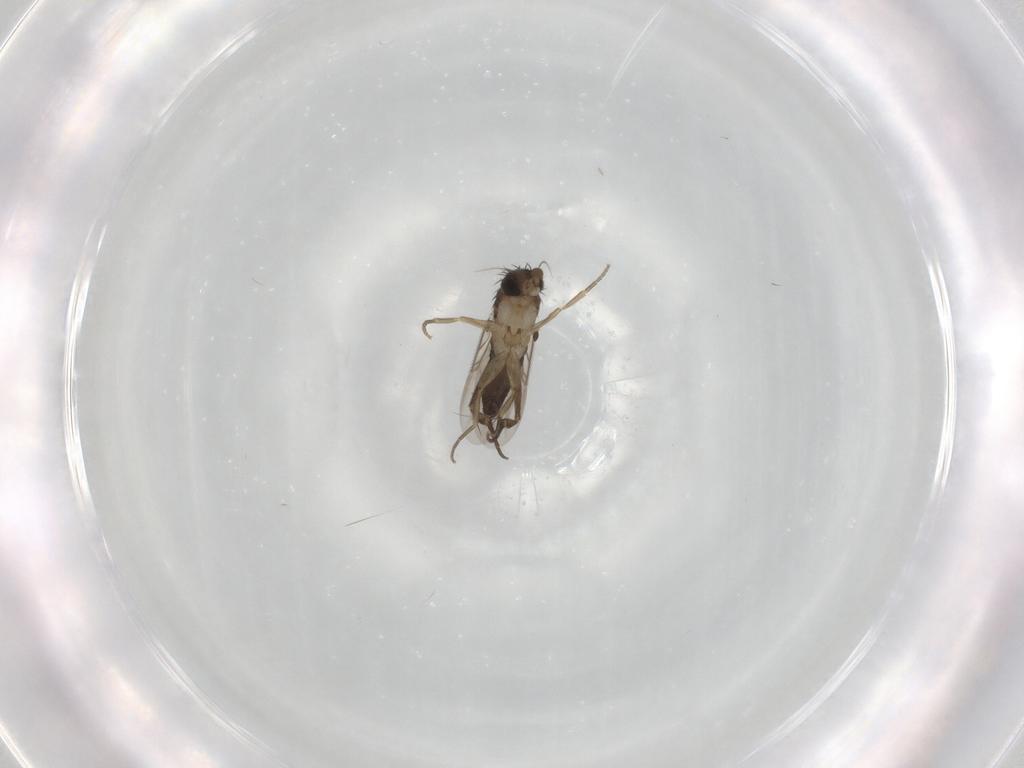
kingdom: Animalia
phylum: Arthropoda
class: Insecta
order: Diptera
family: Phoridae
